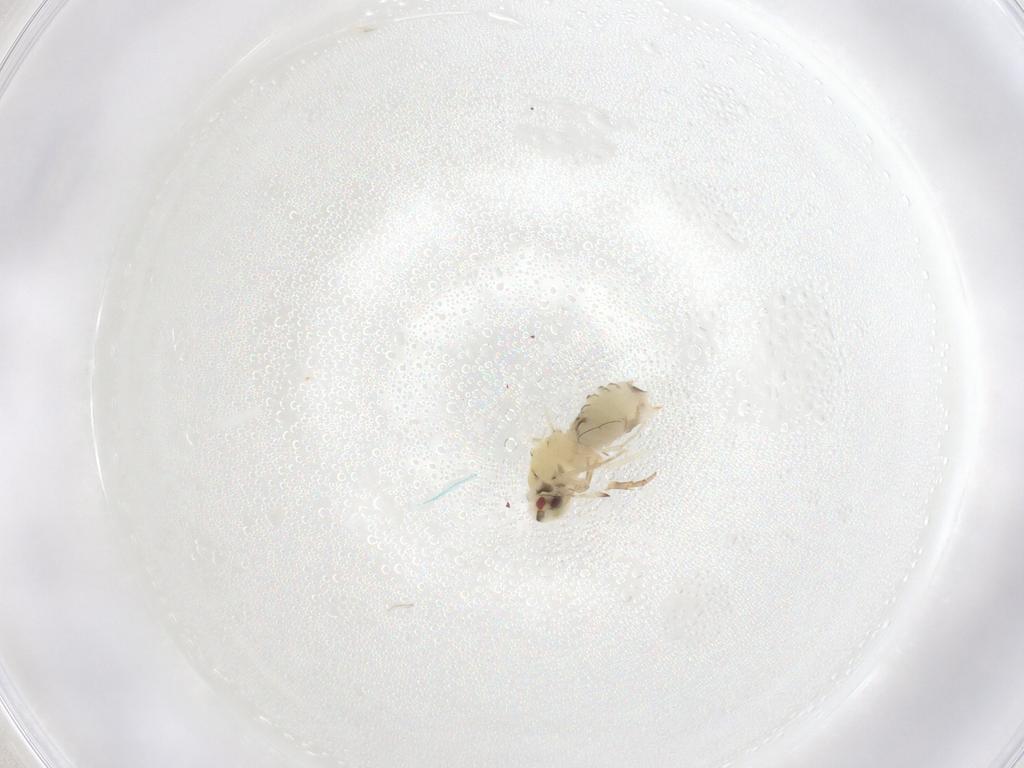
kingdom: Animalia
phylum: Arthropoda
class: Insecta
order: Hemiptera
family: Aleyrodidae
